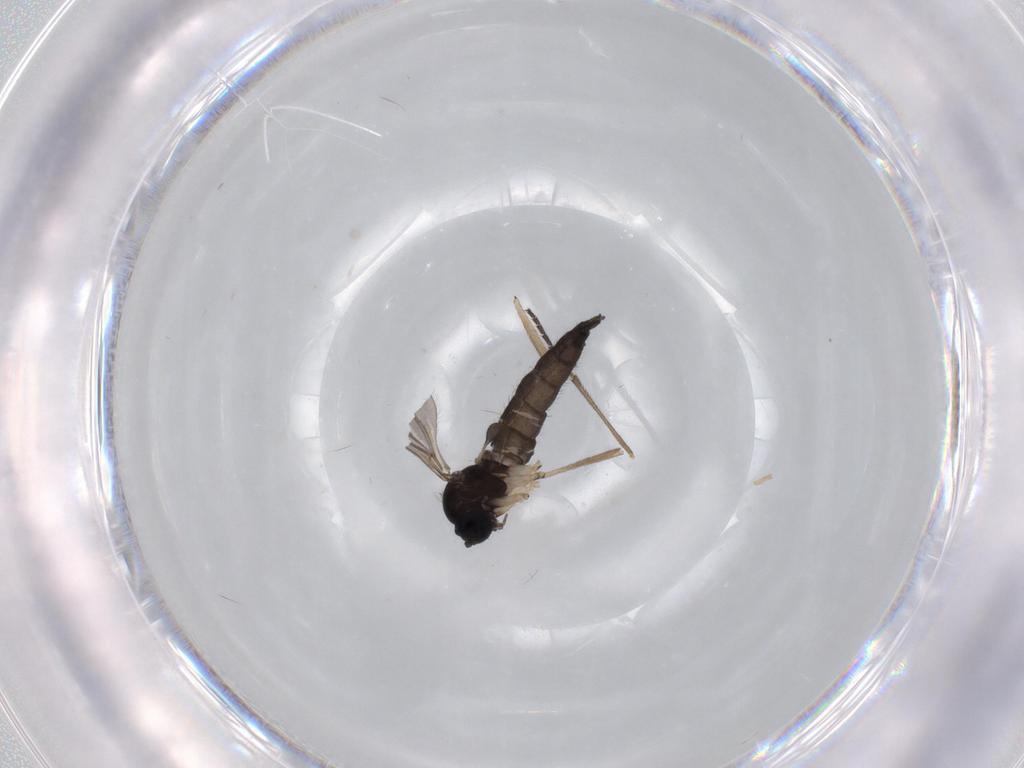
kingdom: Animalia
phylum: Arthropoda
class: Insecta
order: Diptera
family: Sciaridae
